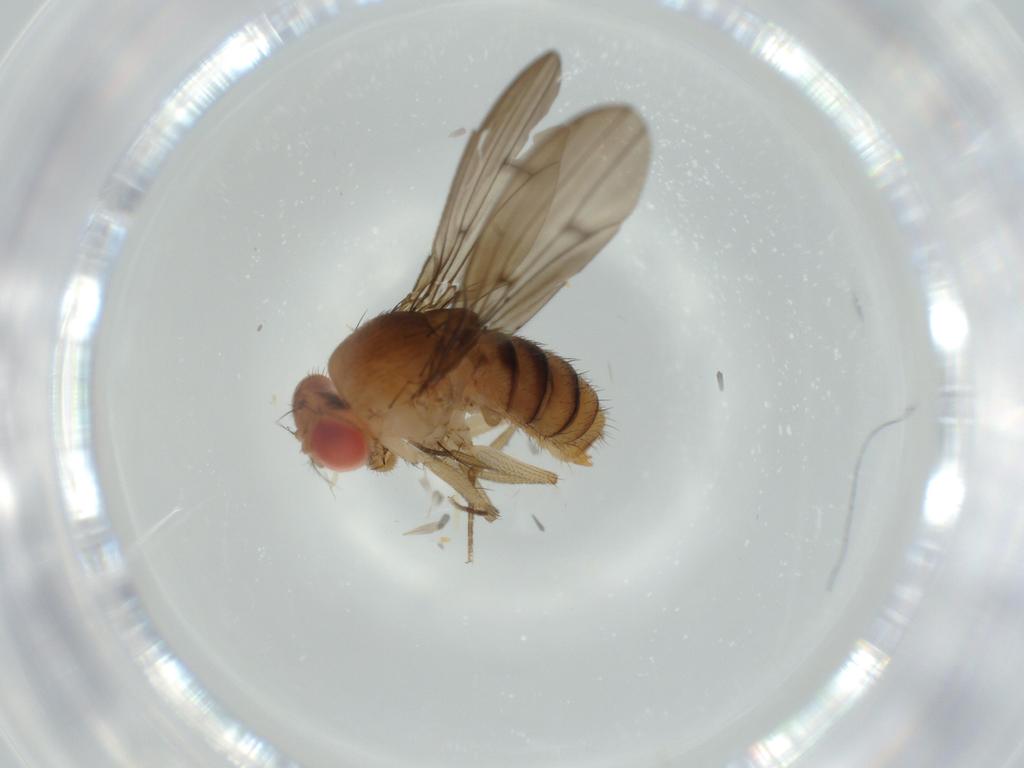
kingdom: Animalia
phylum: Arthropoda
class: Insecta
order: Diptera
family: Drosophilidae
